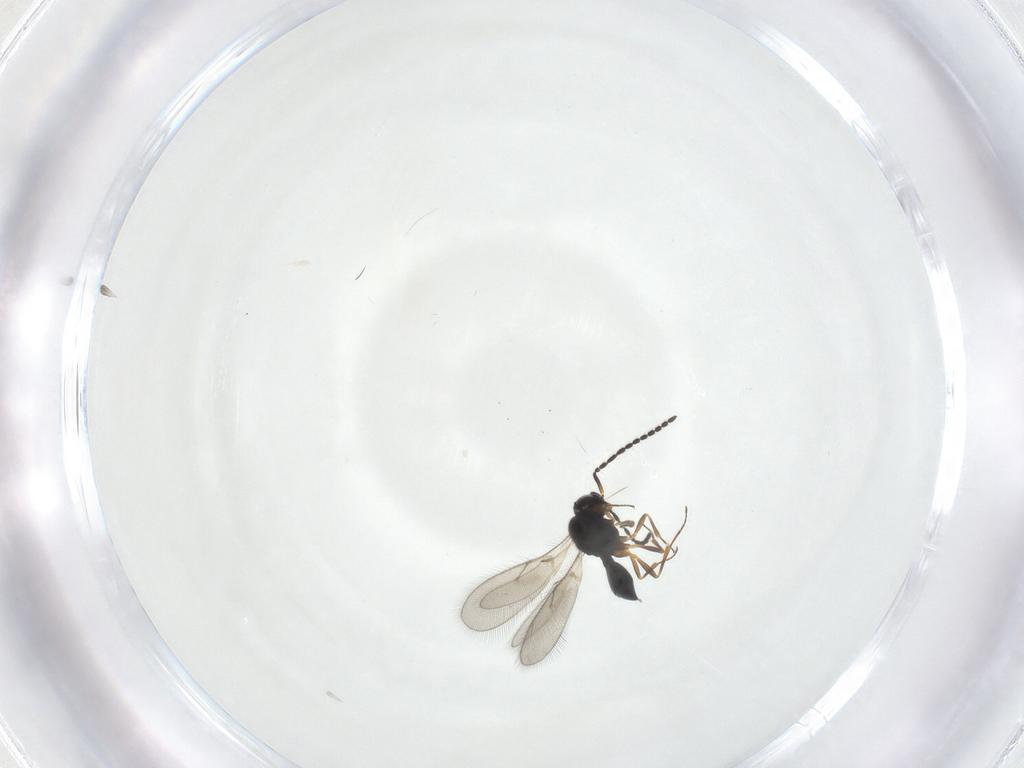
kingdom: Animalia
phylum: Arthropoda
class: Insecta
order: Hymenoptera
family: Scelionidae
